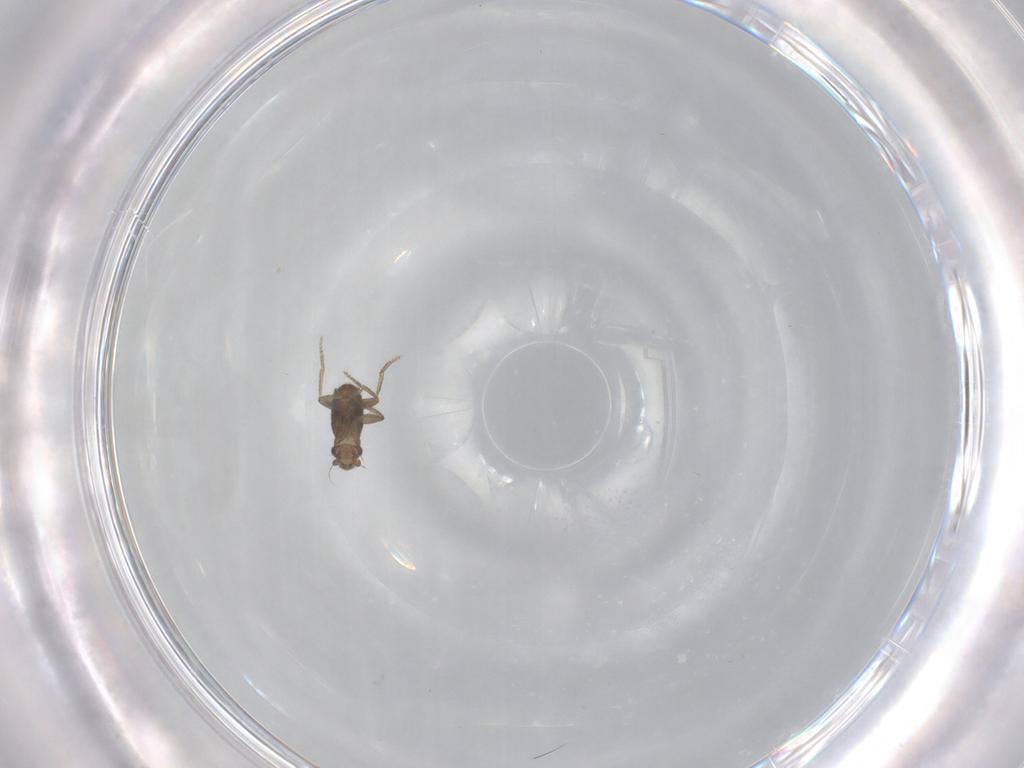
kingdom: Animalia
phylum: Arthropoda
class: Insecta
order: Diptera
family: Phoridae
